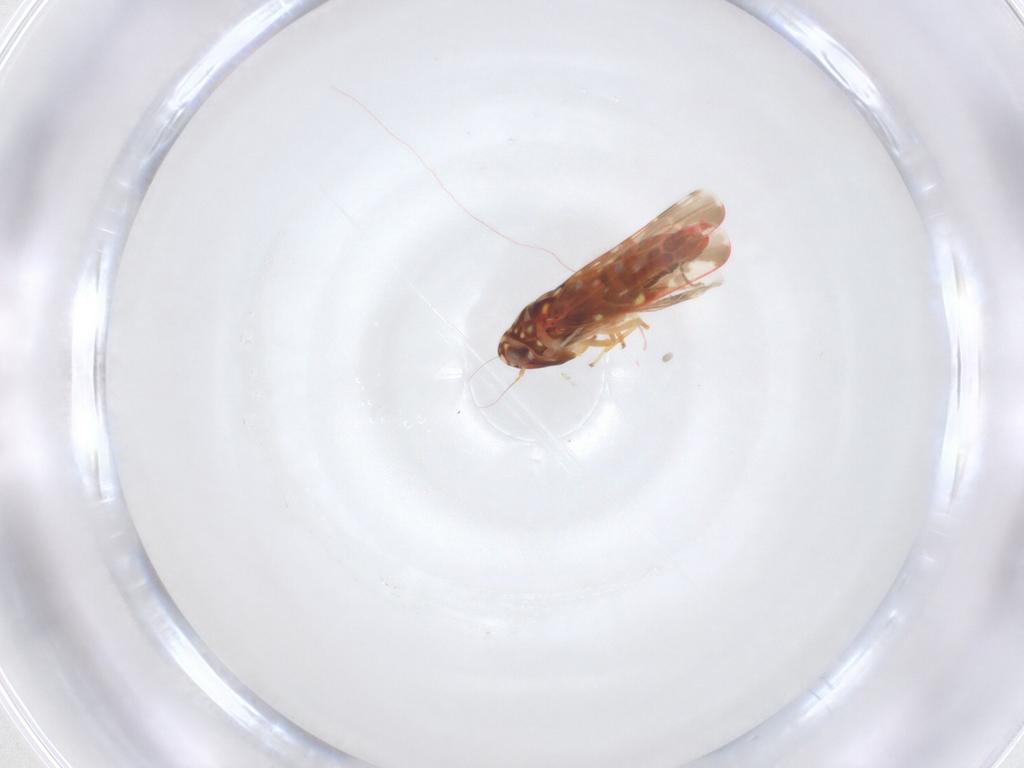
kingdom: Animalia
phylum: Arthropoda
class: Insecta
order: Hemiptera
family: Cicadellidae
